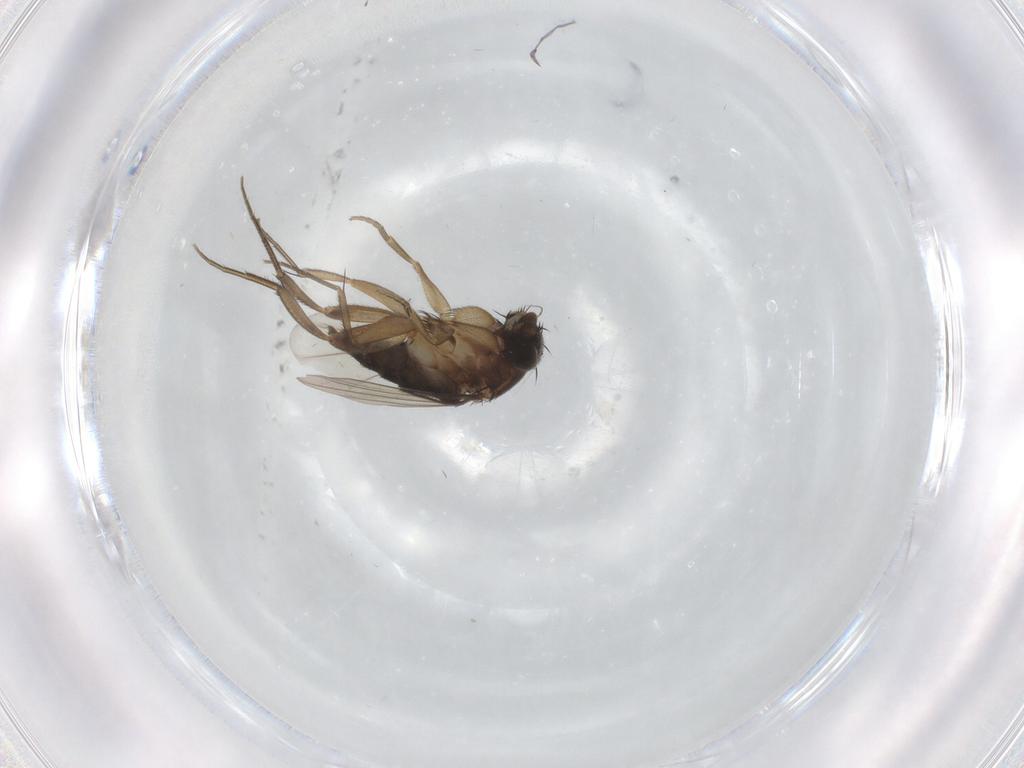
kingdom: Animalia
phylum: Arthropoda
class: Insecta
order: Diptera
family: Phoridae
